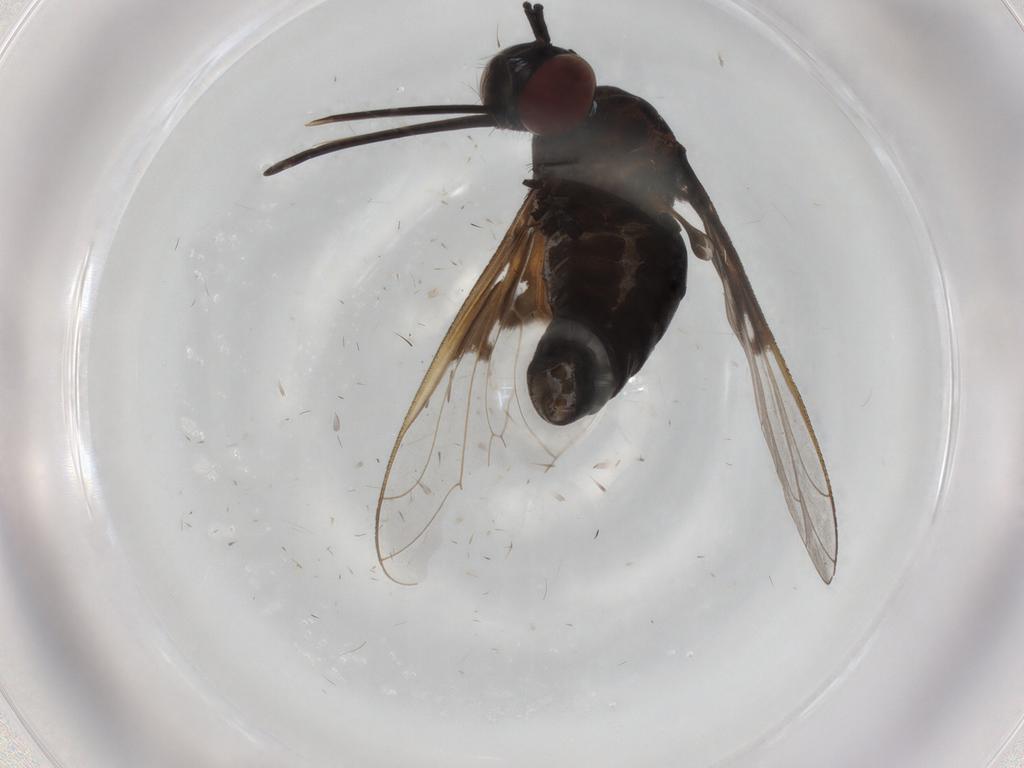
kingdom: Animalia
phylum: Arthropoda
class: Insecta
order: Diptera
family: Bombyliidae
